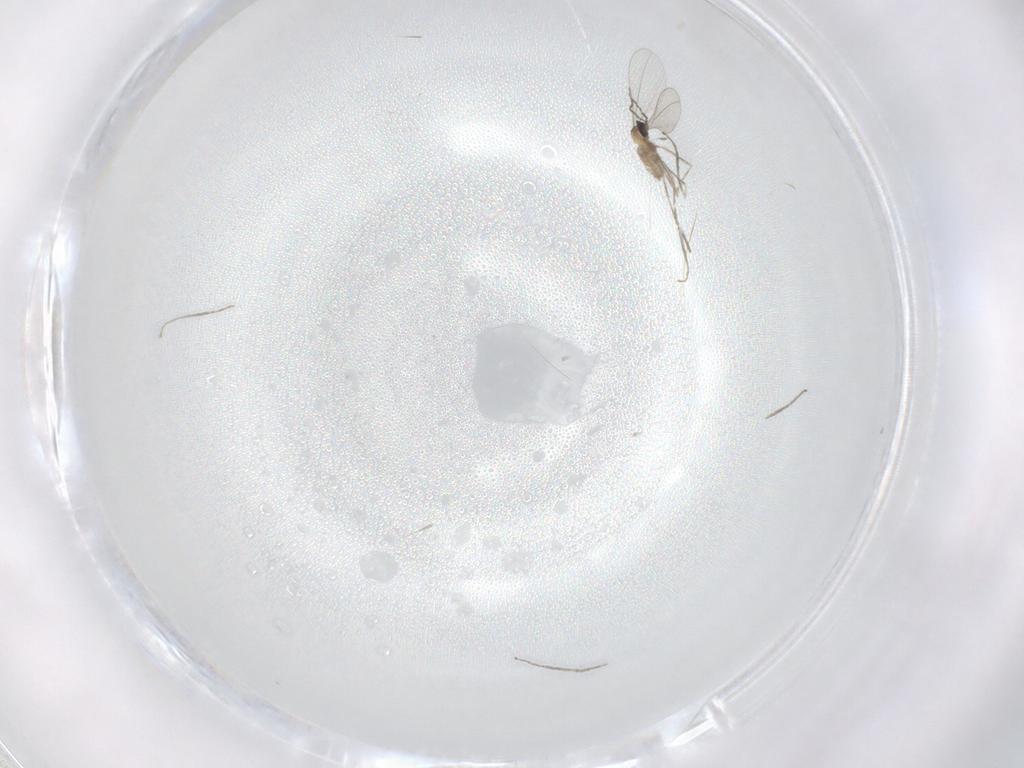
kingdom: Animalia
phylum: Arthropoda
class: Insecta
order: Diptera
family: Cecidomyiidae
